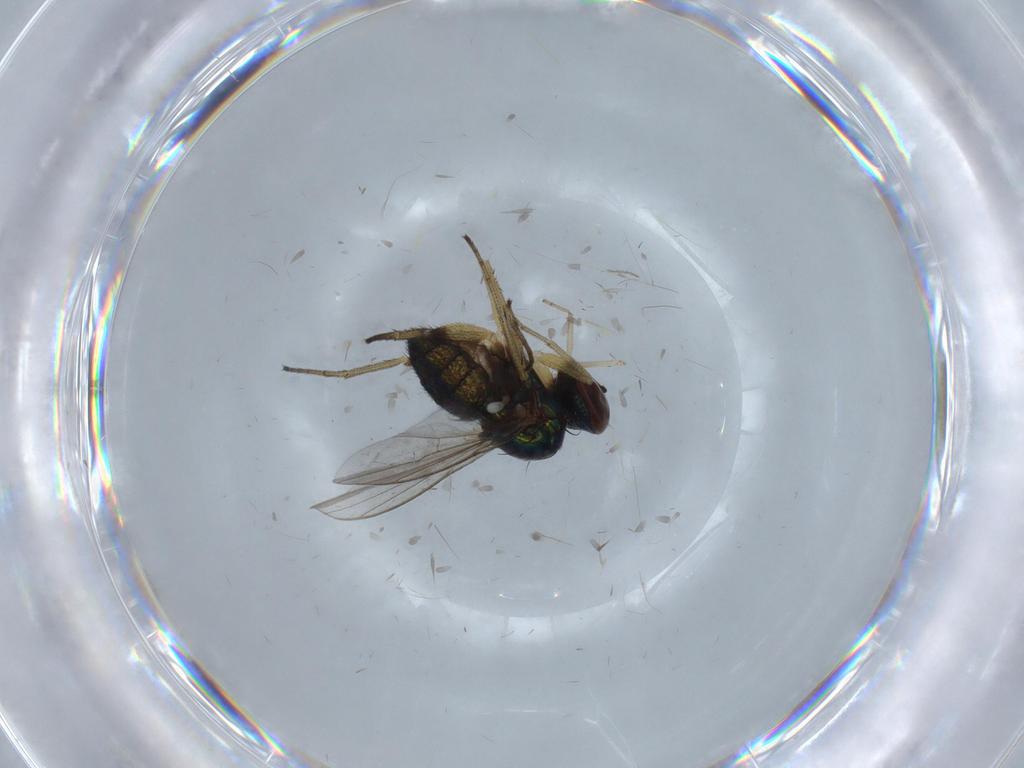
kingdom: Animalia
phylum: Arthropoda
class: Insecta
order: Diptera
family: Dolichopodidae
